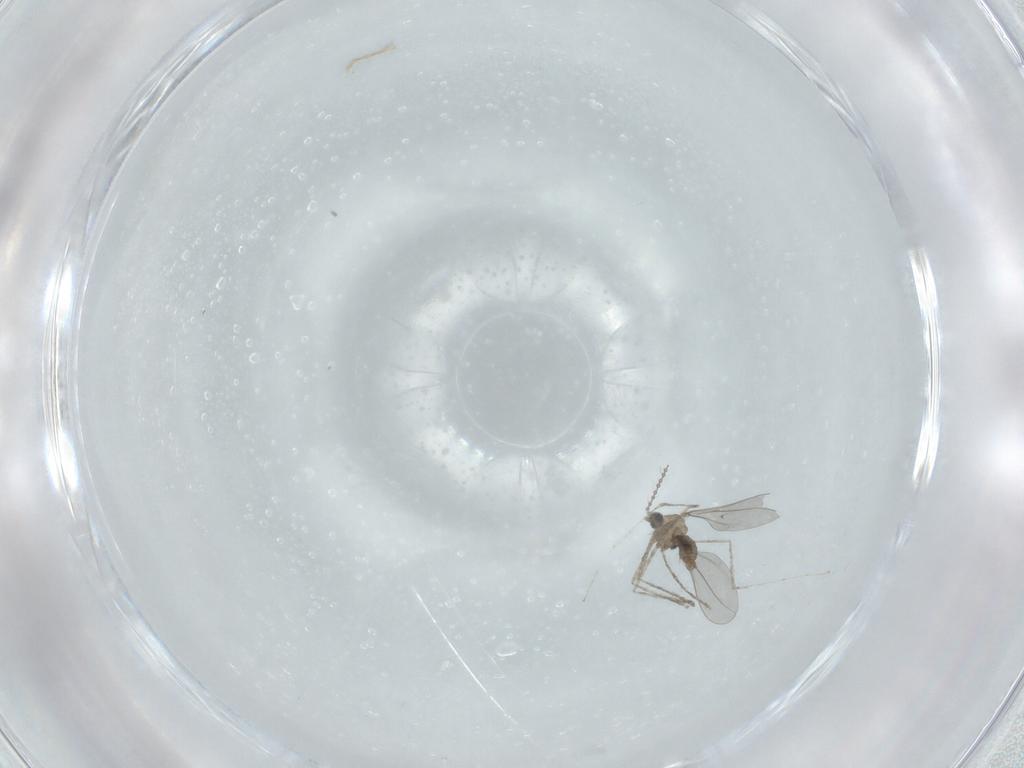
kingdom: Animalia
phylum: Arthropoda
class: Insecta
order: Diptera
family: Cecidomyiidae
